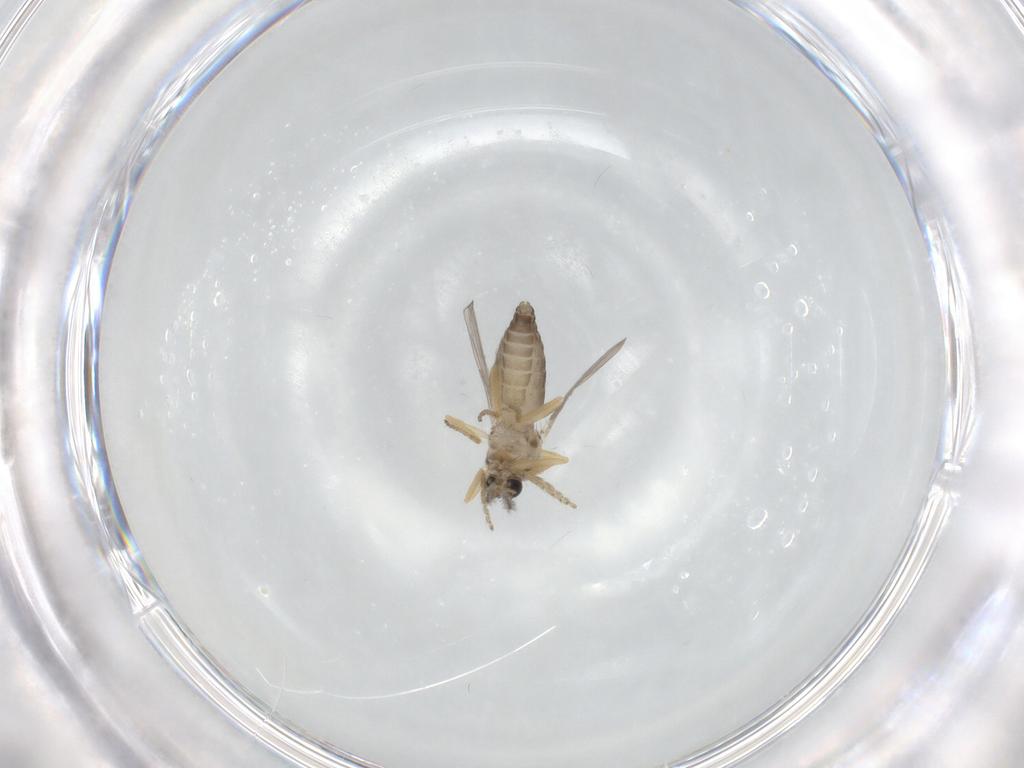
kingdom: Animalia
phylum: Arthropoda
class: Insecta
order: Diptera
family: Ceratopogonidae
